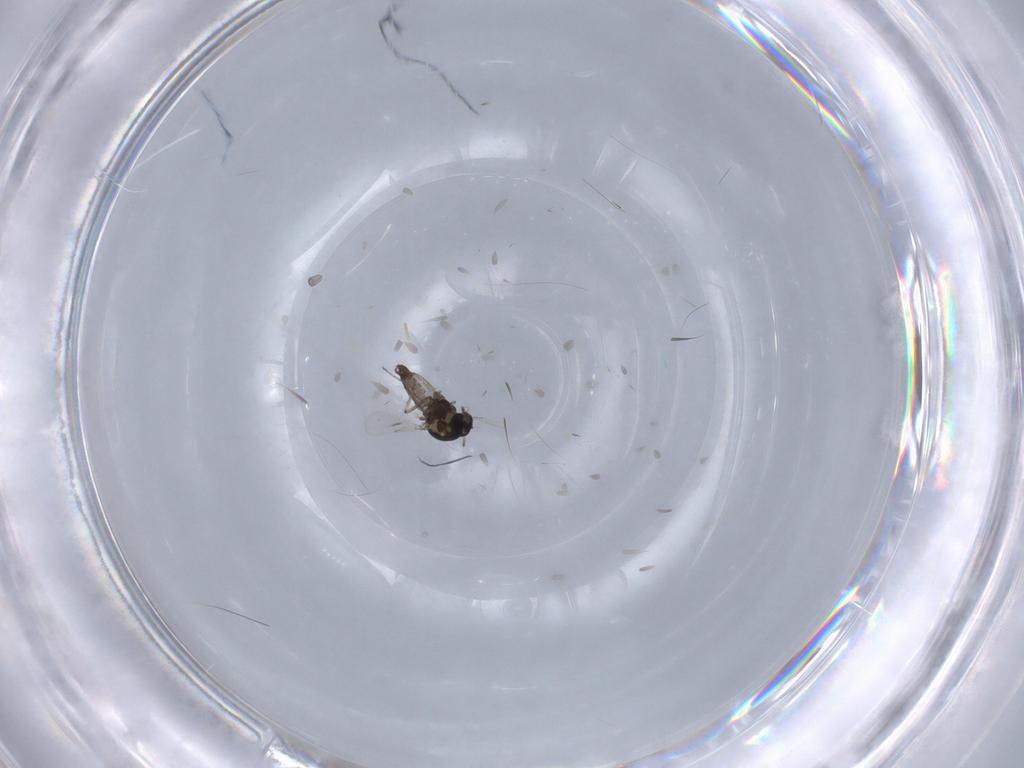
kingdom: Animalia
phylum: Arthropoda
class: Insecta
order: Diptera
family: Ceratopogonidae
